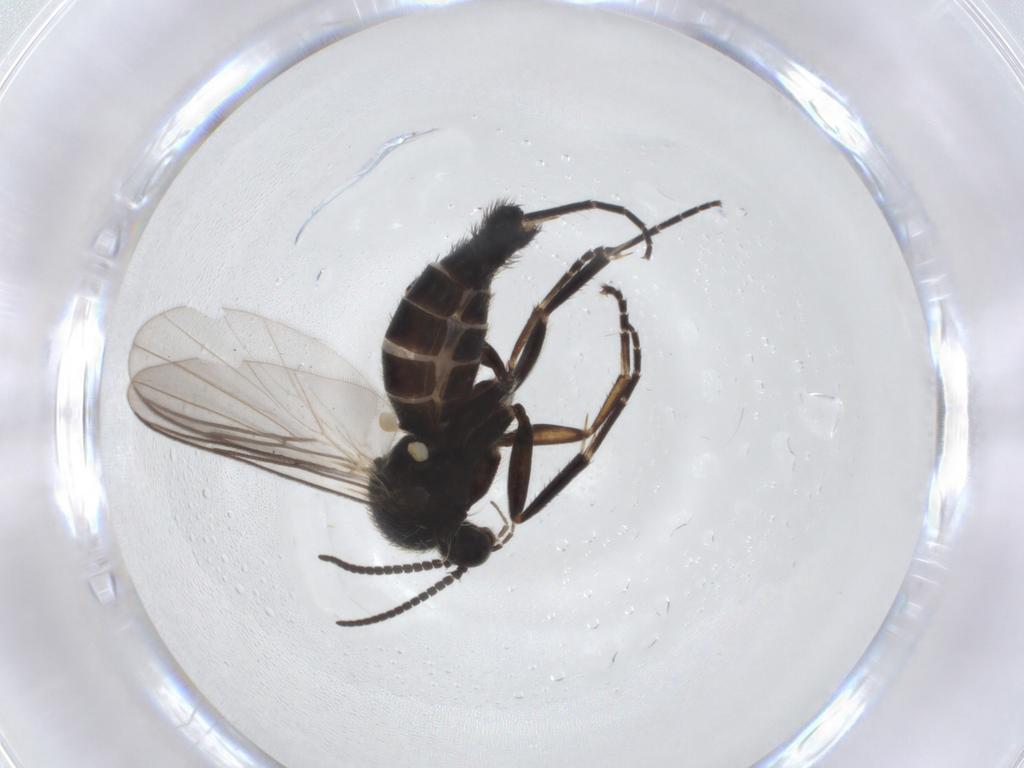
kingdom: Animalia
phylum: Arthropoda
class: Insecta
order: Diptera
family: Mycetophilidae
